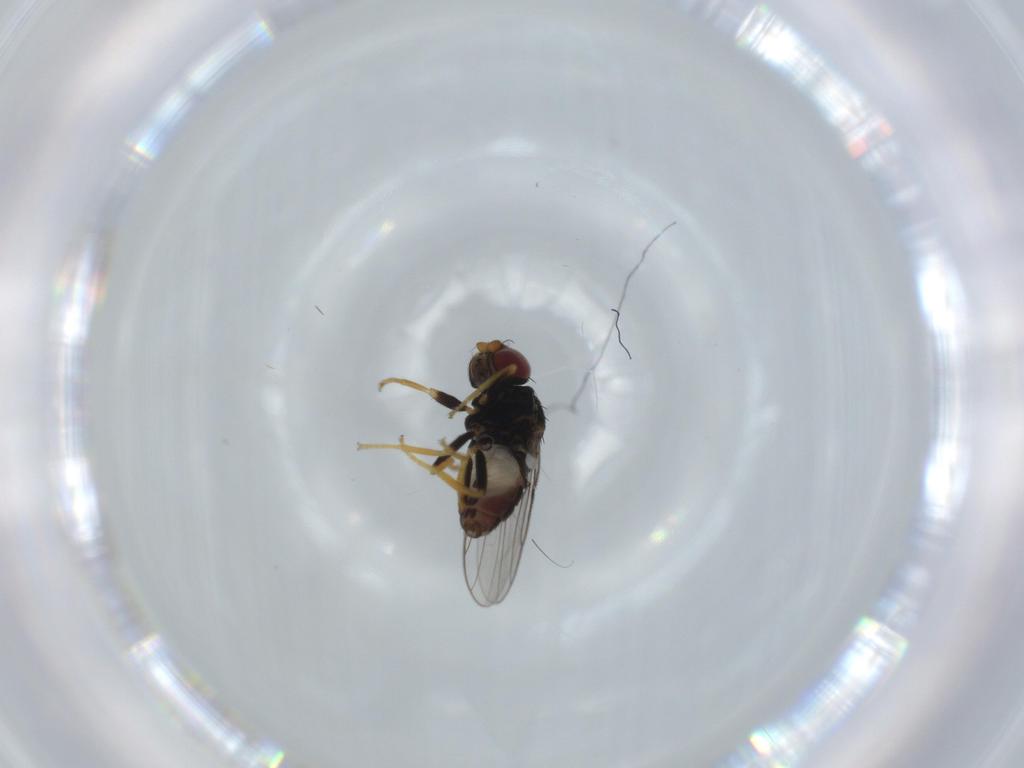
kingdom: Animalia
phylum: Arthropoda
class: Insecta
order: Diptera
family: Chloropidae
